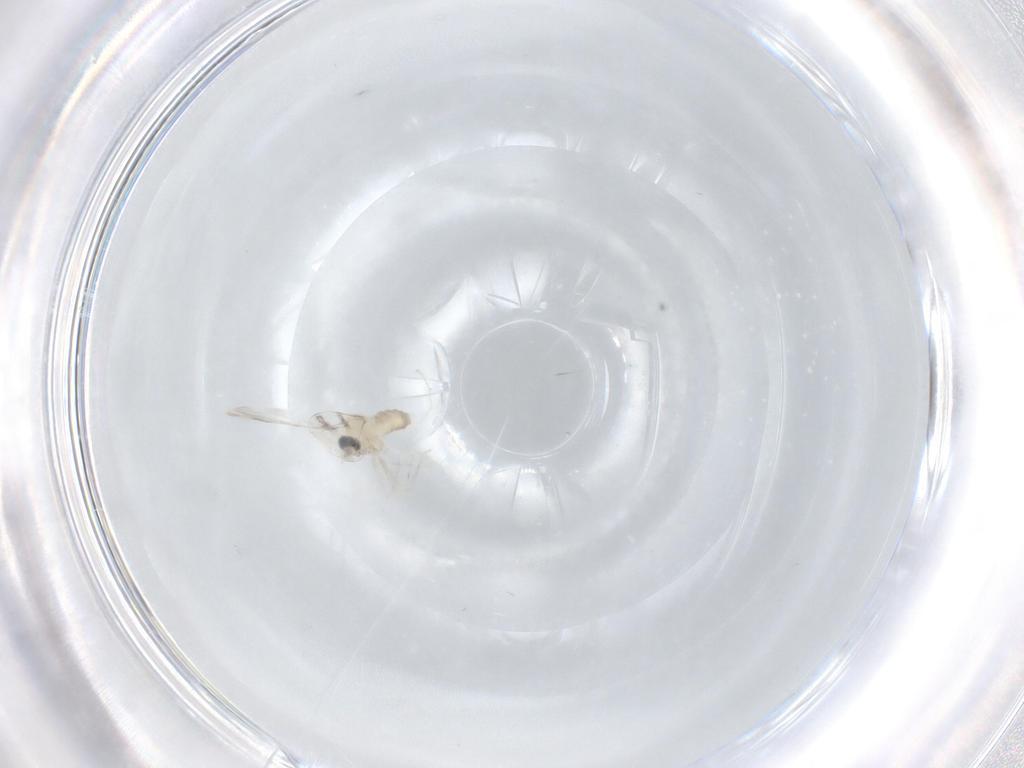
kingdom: Animalia
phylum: Arthropoda
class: Insecta
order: Diptera
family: Cecidomyiidae
